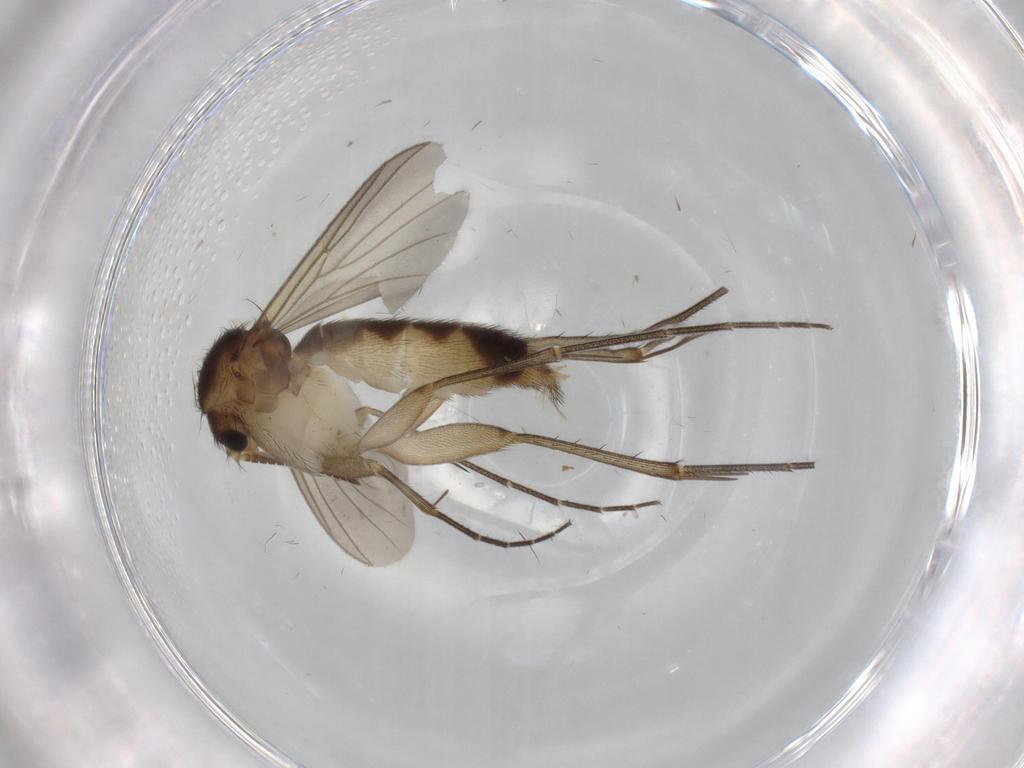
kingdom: Animalia
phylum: Arthropoda
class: Insecta
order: Diptera
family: Mycetophilidae
